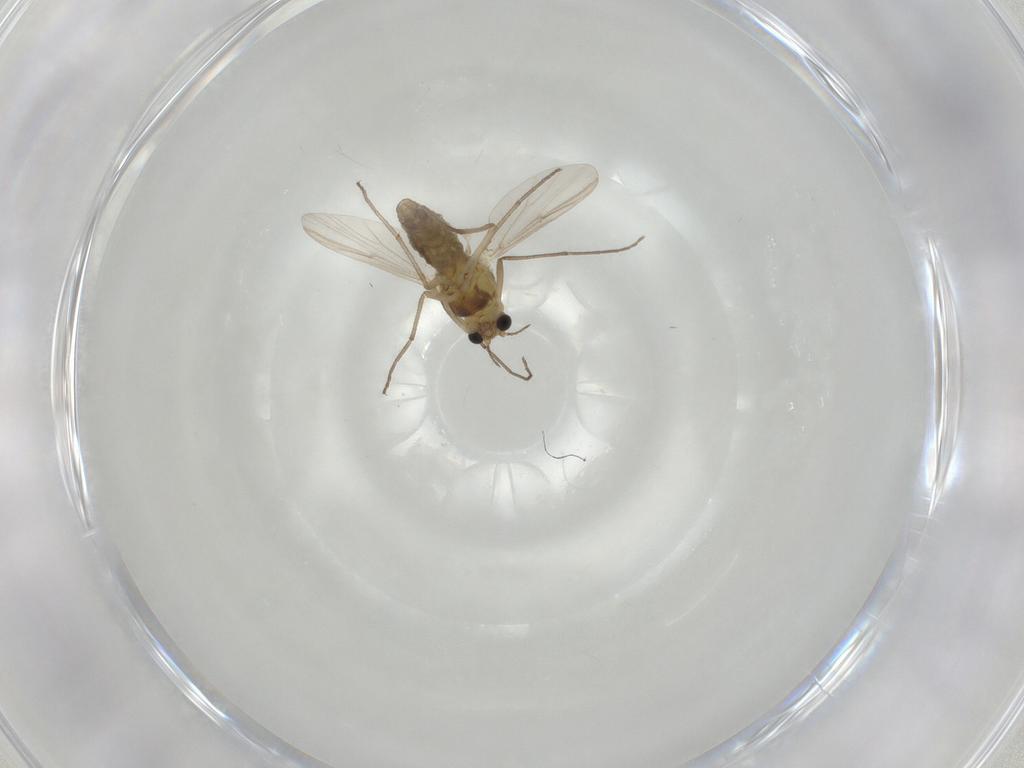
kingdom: Animalia
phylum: Arthropoda
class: Insecta
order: Diptera
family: Chironomidae
